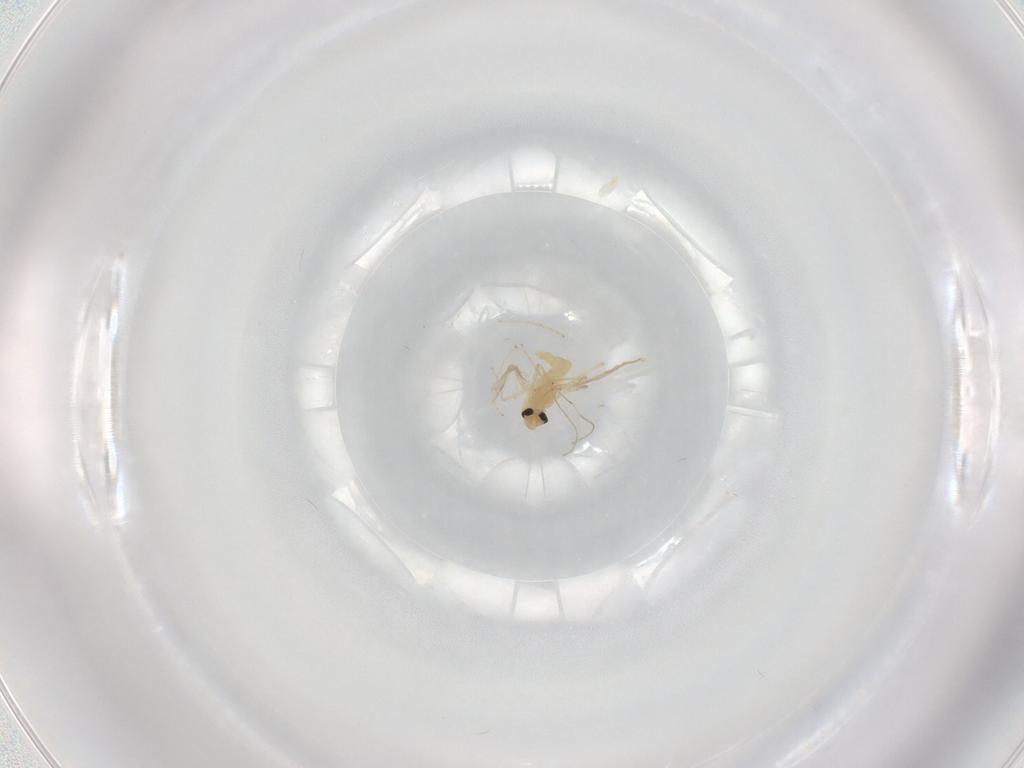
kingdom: Animalia
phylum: Arthropoda
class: Insecta
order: Diptera
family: Sphaeroceridae
